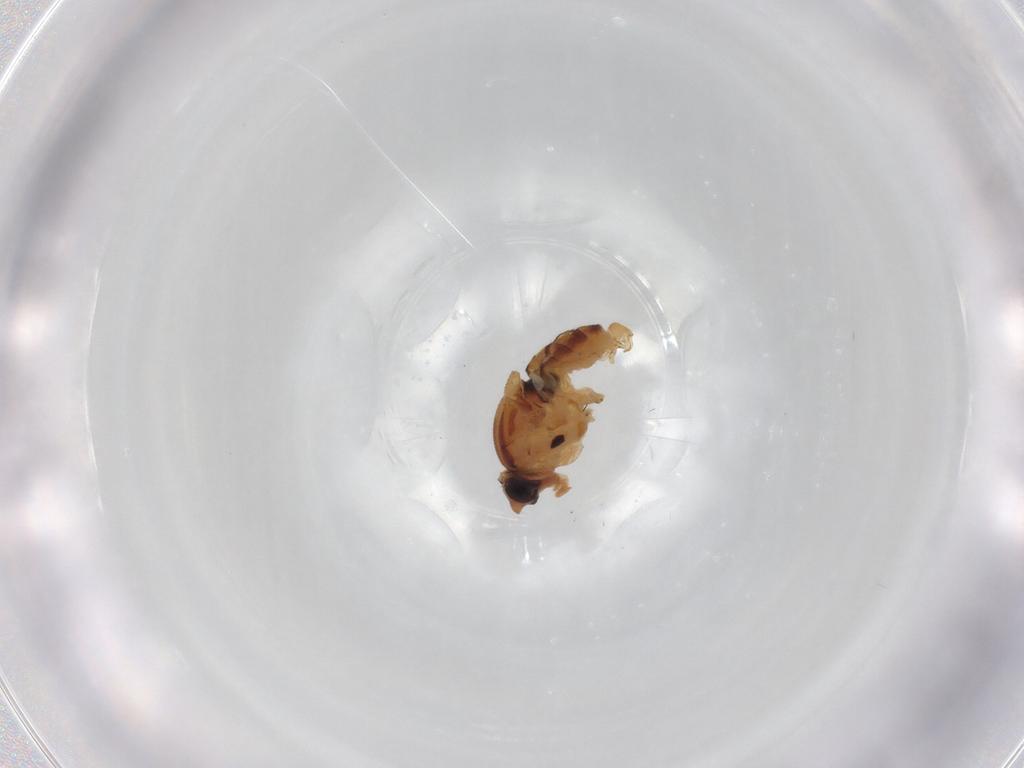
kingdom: Animalia
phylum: Arthropoda
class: Insecta
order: Diptera
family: Chloropidae
